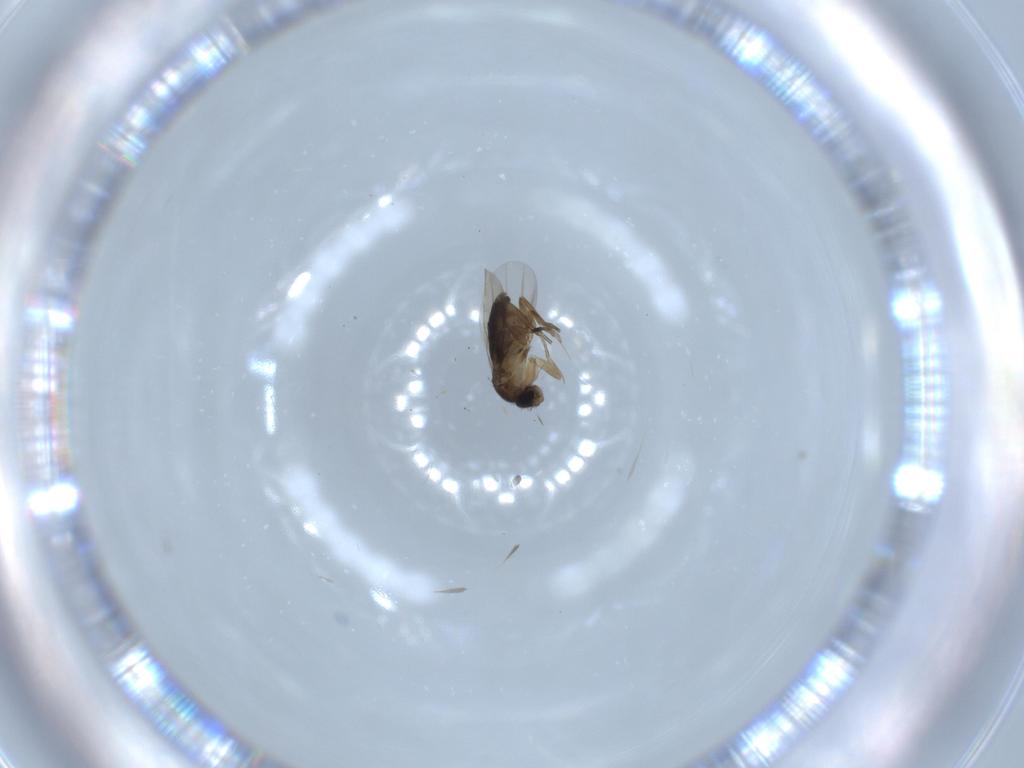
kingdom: Animalia
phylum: Arthropoda
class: Insecta
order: Diptera
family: Phoridae
